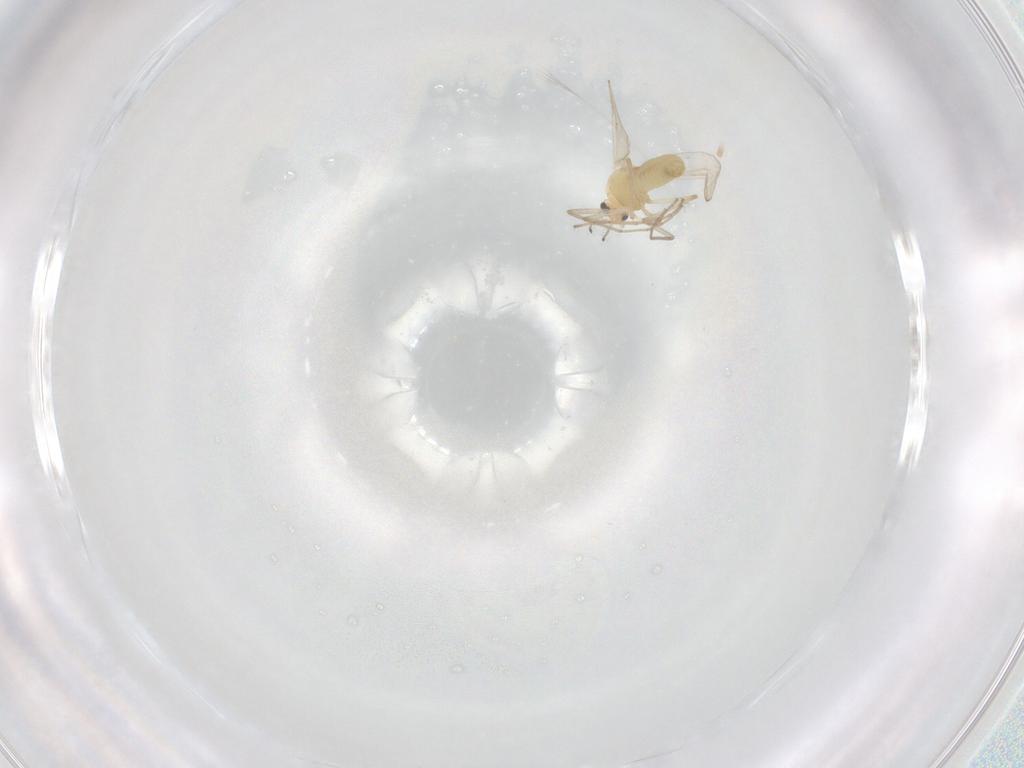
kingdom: Animalia
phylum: Arthropoda
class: Insecta
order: Diptera
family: Chironomidae
